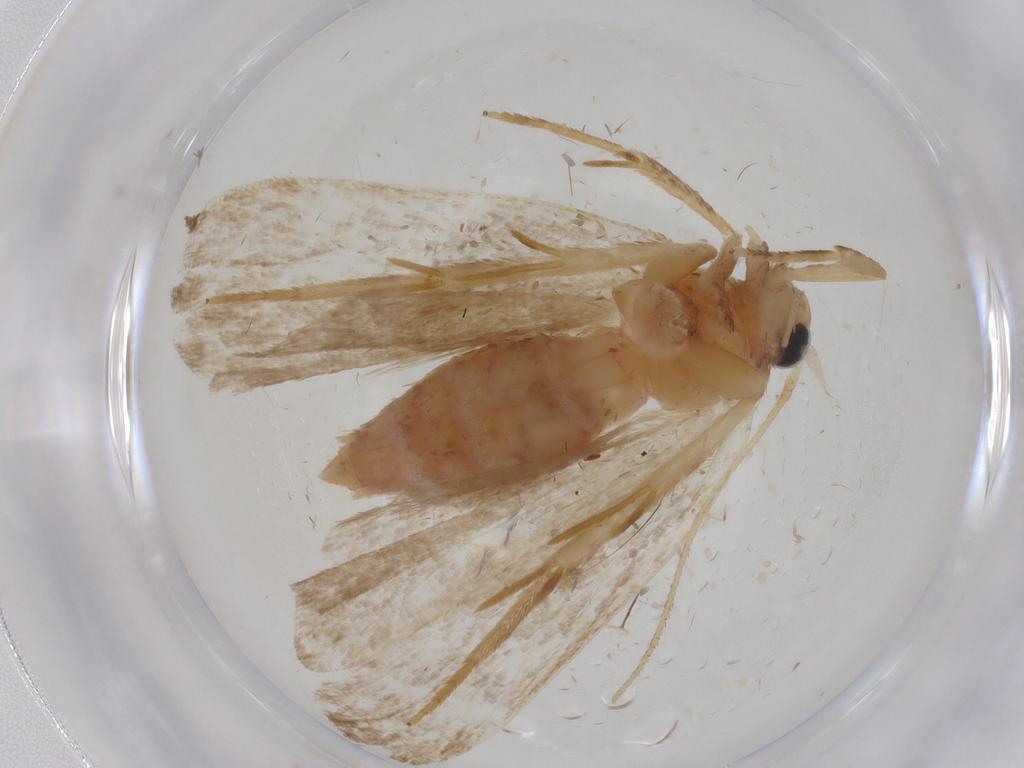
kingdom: Animalia
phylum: Arthropoda
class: Insecta
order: Lepidoptera
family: Autostichidae
